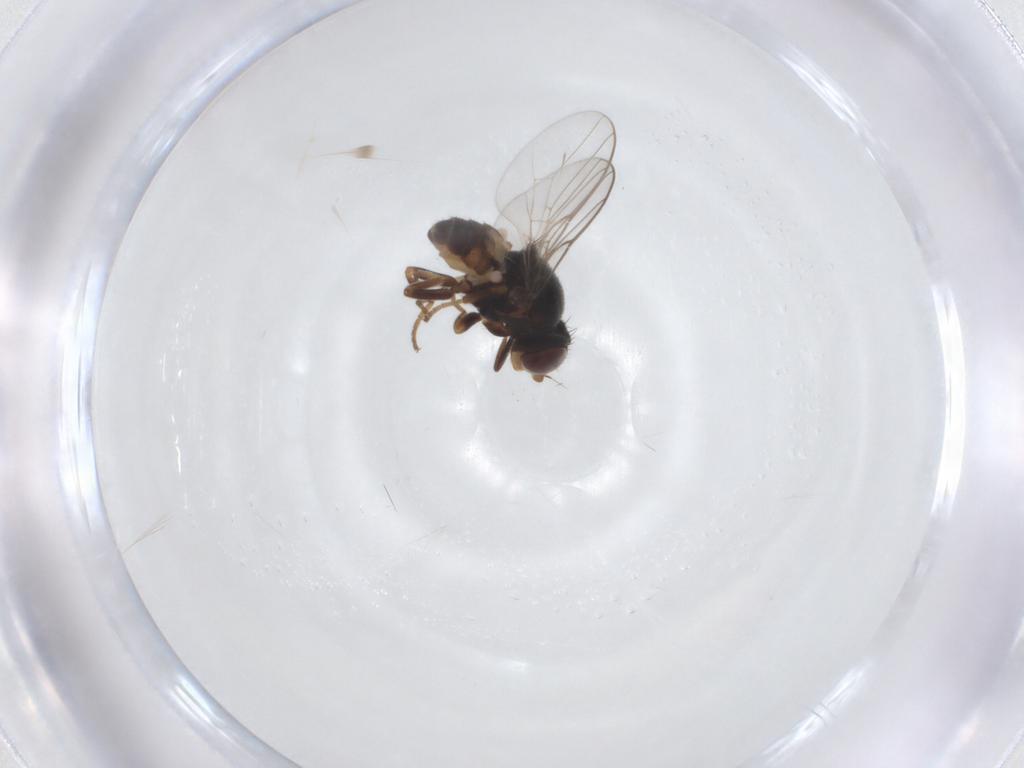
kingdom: Animalia
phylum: Arthropoda
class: Insecta
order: Diptera
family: Chloropidae
